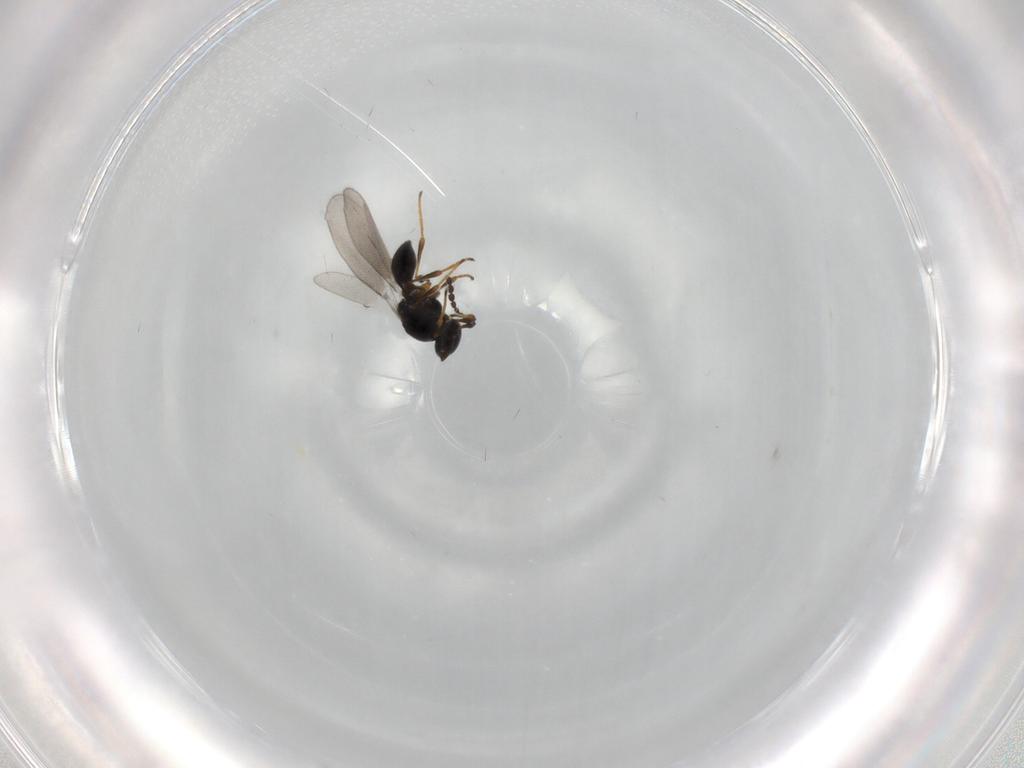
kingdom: Animalia
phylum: Arthropoda
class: Insecta
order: Hymenoptera
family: Platygastridae
